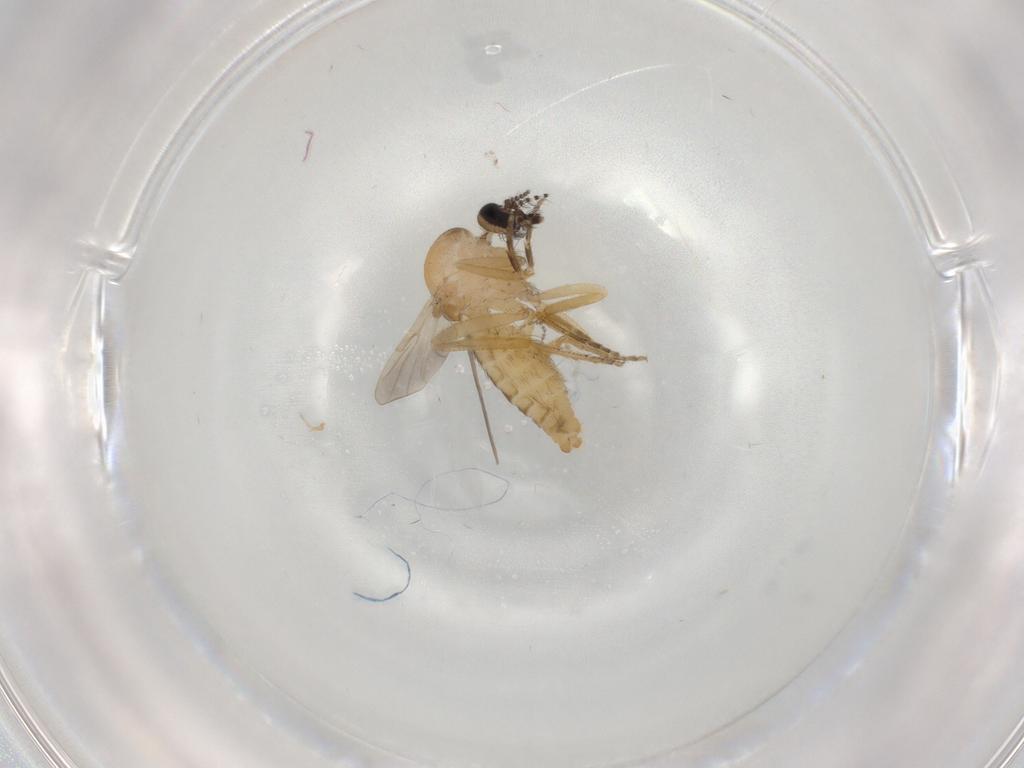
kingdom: Animalia
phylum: Arthropoda
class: Insecta
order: Diptera
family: Ceratopogonidae
